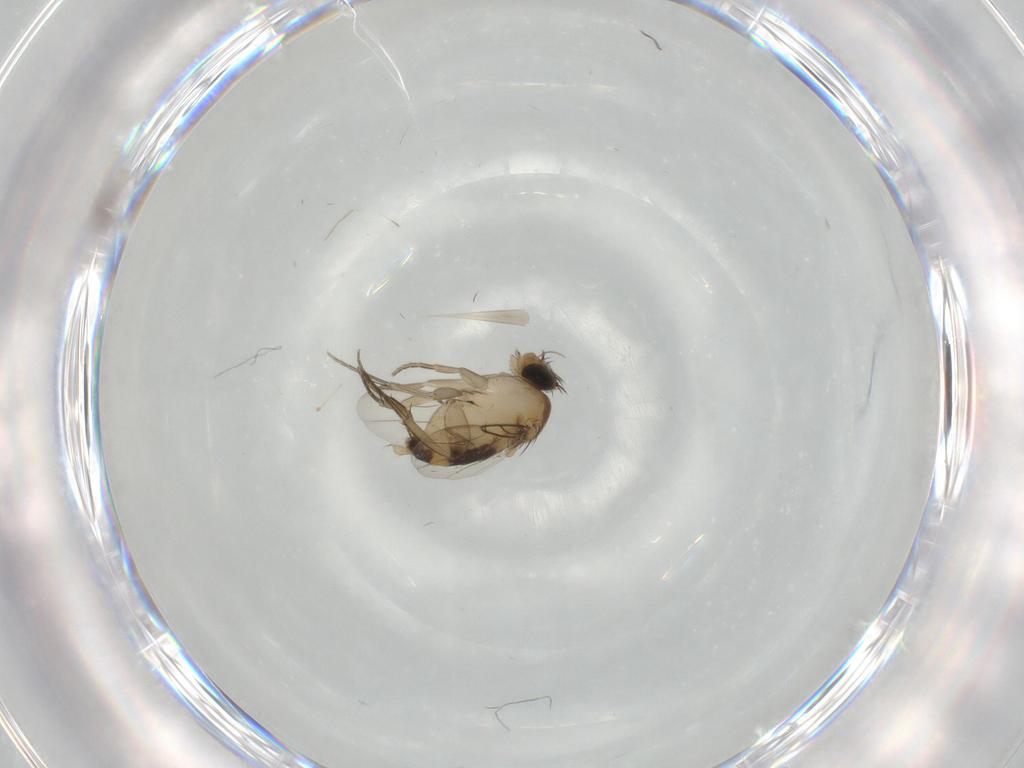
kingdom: Animalia
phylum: Arthropoda
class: Insecta
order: Diptera
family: Phoridae
